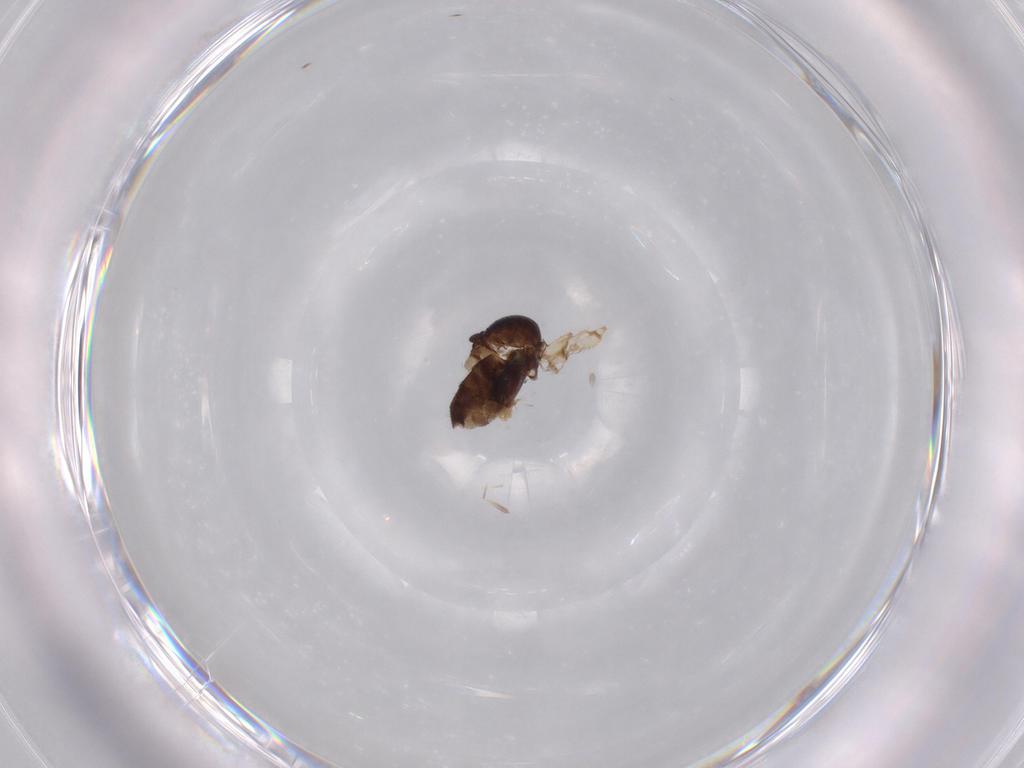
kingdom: Animalia
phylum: Arthropoda
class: Insecta
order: Diptera
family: Dolichopodidae
